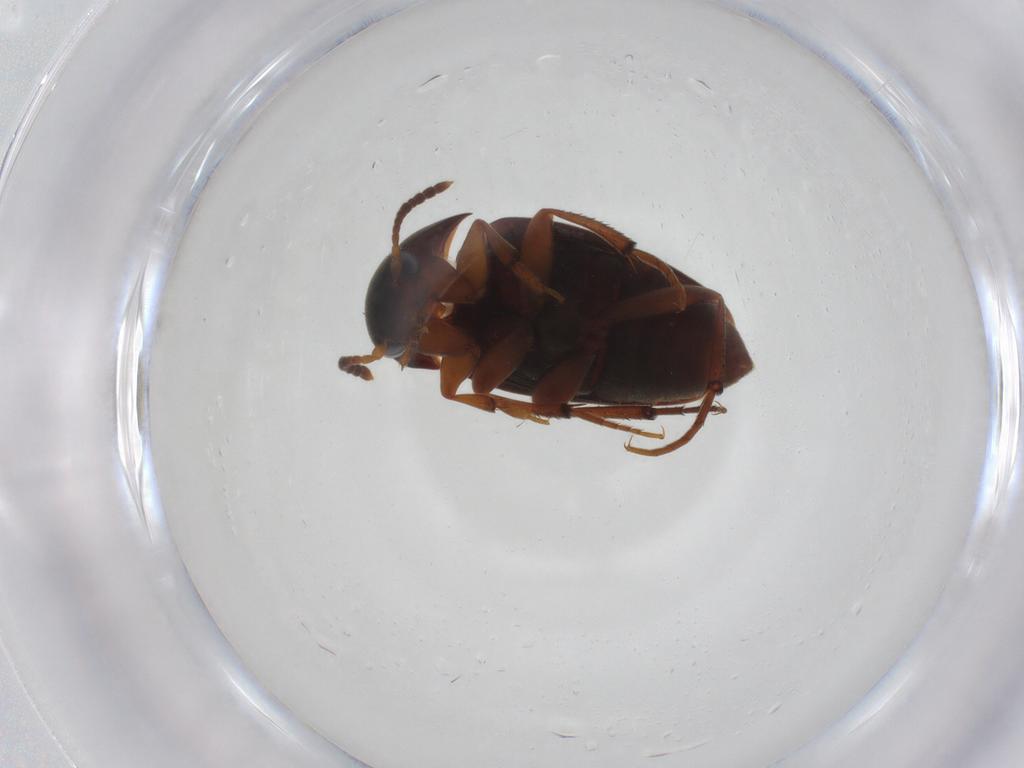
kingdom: Animalia
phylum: Arthropoda
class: Insecta
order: Coleoptera
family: Leiodidae
